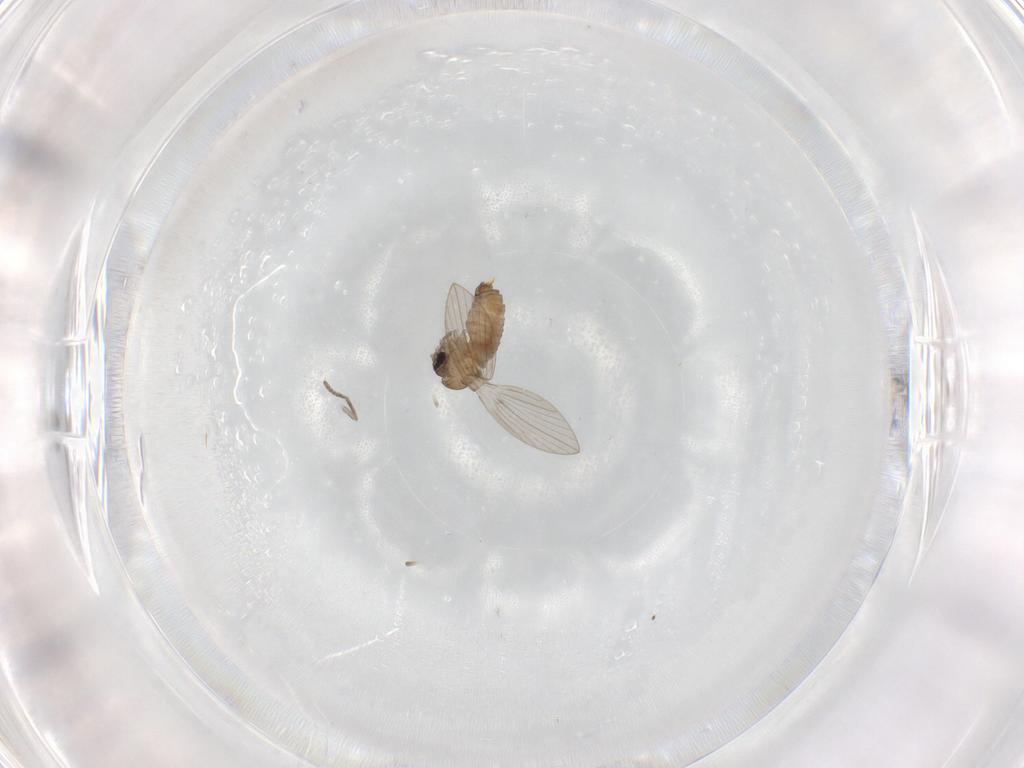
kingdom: Animalia
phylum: Arthropoda
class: Insecta
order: Diptera
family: Psychodidae
